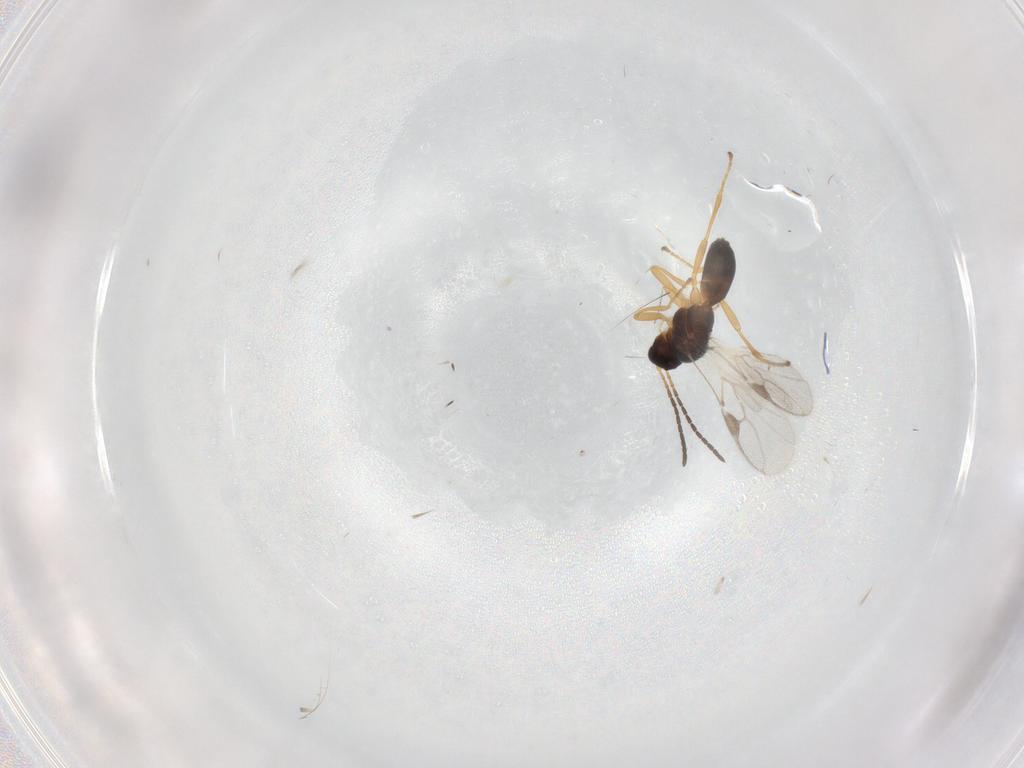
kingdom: Animalia
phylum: Arthropoda
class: Insecta
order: Hymenoptera
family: Braconidae
